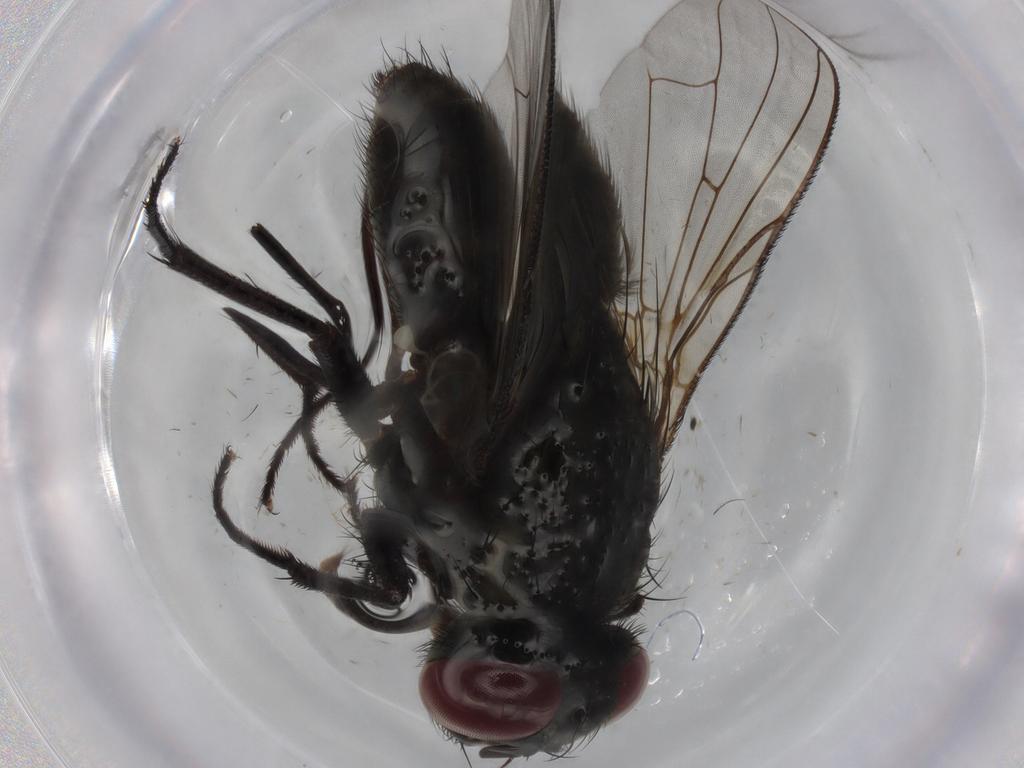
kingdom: Animalia
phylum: Arthropoda
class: Insecta
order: Diptera
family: Muscidae
